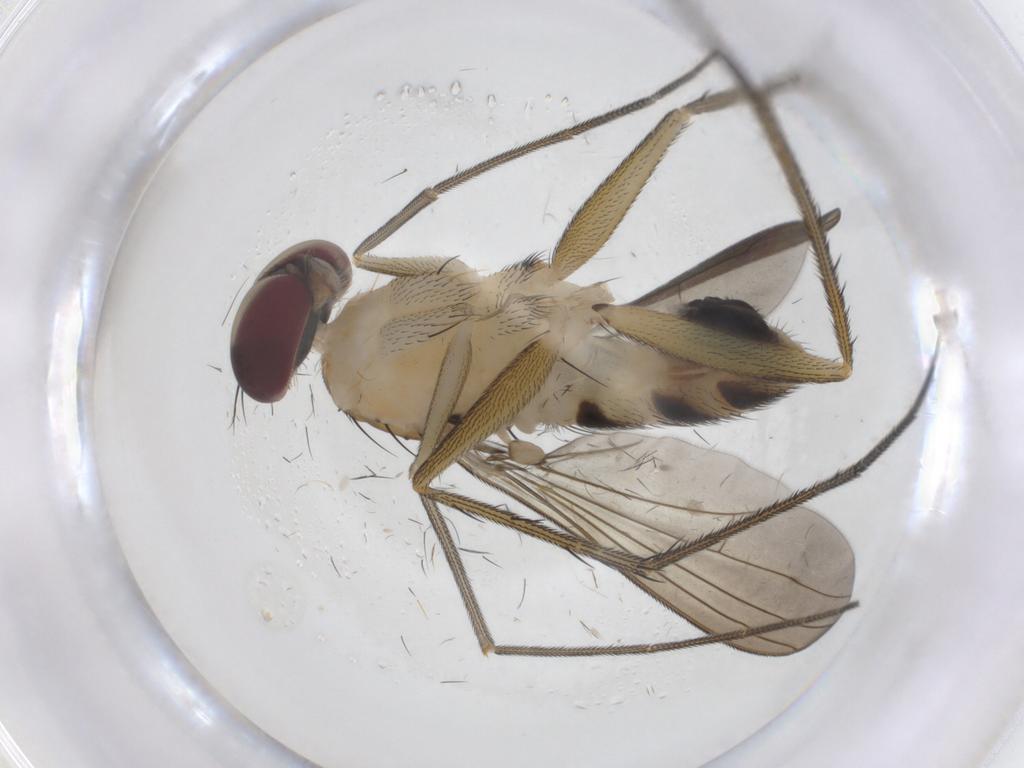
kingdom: Animalia
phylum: Arthropoda
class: Insecta
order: Diptera
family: Dolichopodidae
